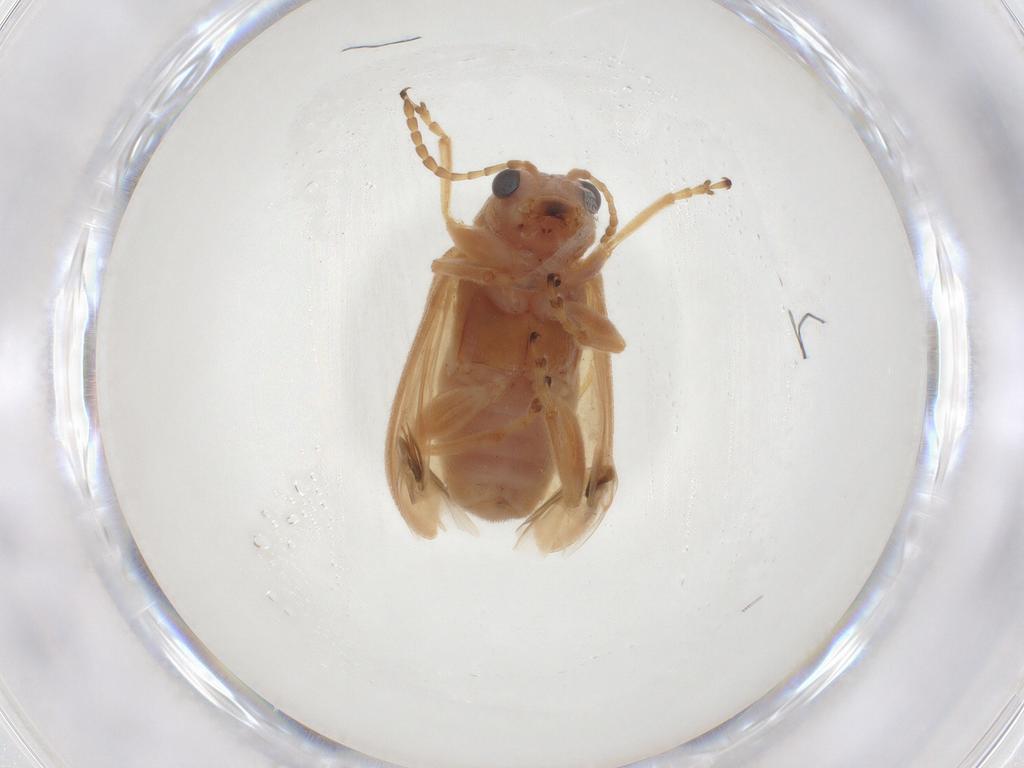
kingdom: Animalia
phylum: Arthropoda
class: Insecta
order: Coleoptera
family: Chrysomelidae
